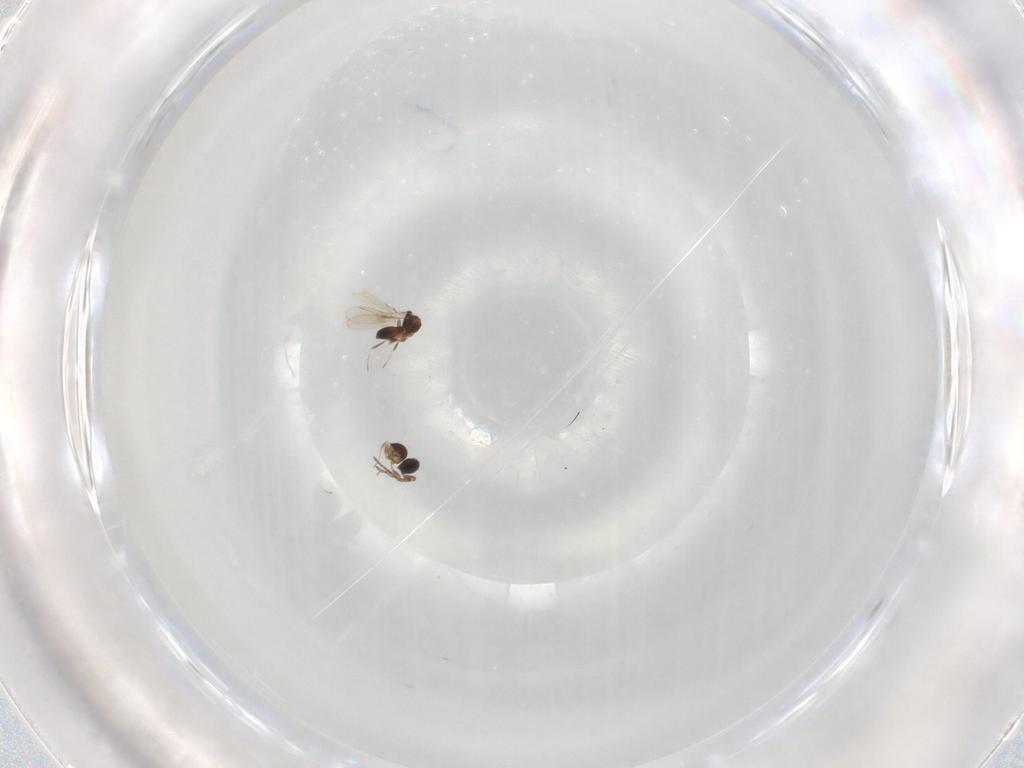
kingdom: Animalia
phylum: Arthropoda
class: Insecta
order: Hymenoptera
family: Scelionidae
